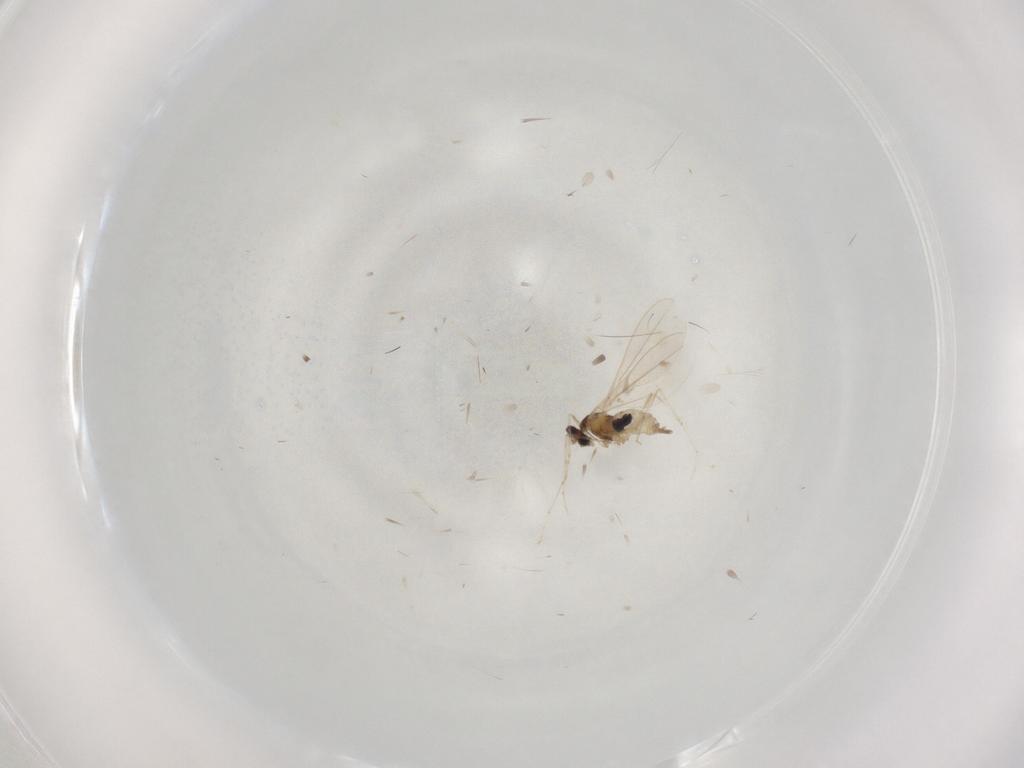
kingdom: Animalia
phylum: Arthropoda
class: Insecta
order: Diptera
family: Cecidomyiidae
